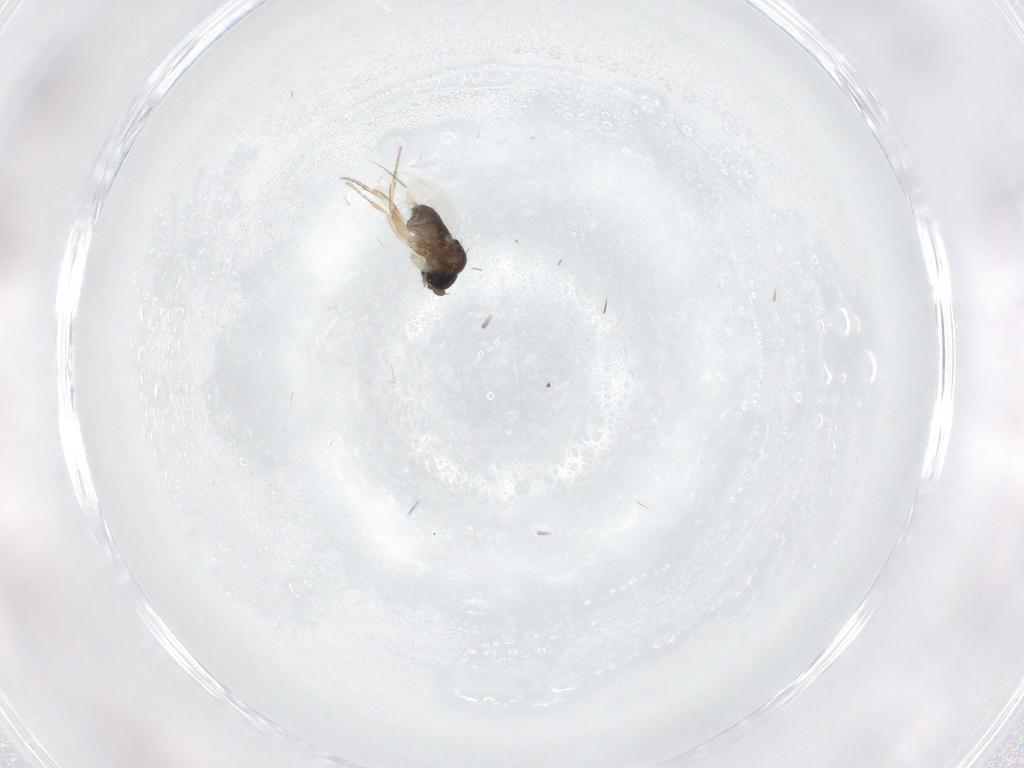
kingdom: Animalia
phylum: Arthropoda
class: Insecta
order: Diptera
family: Phoridae
